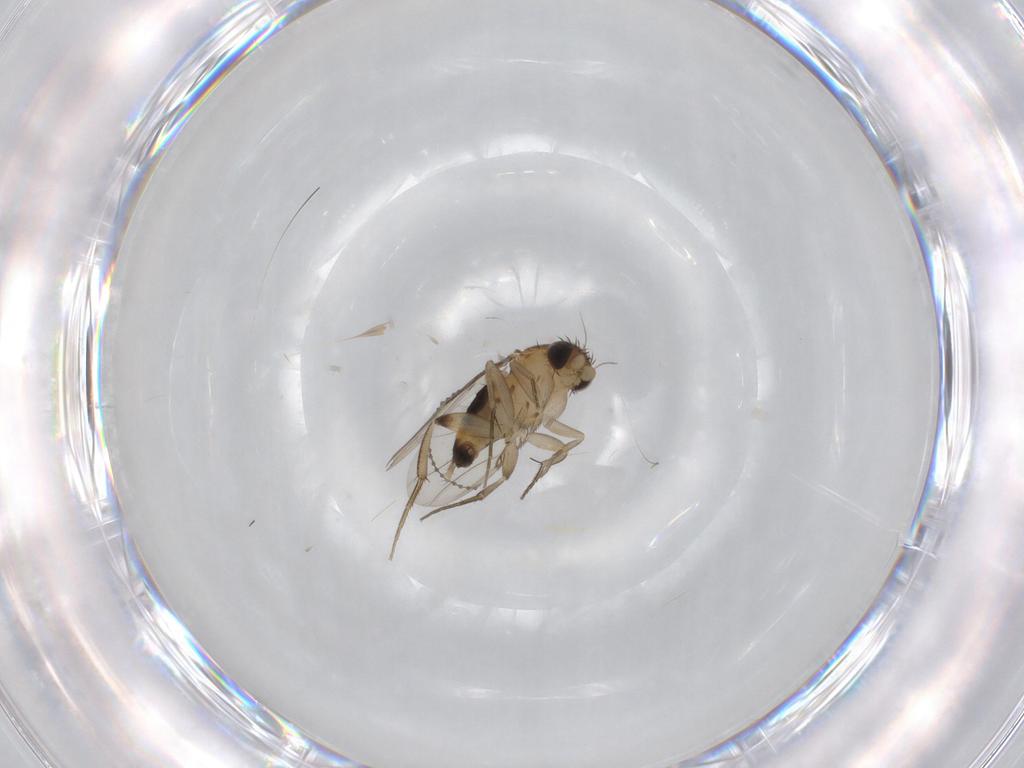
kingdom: Animalia
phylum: Arthropoda
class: Insecta
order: Diptera
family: Phoridae
